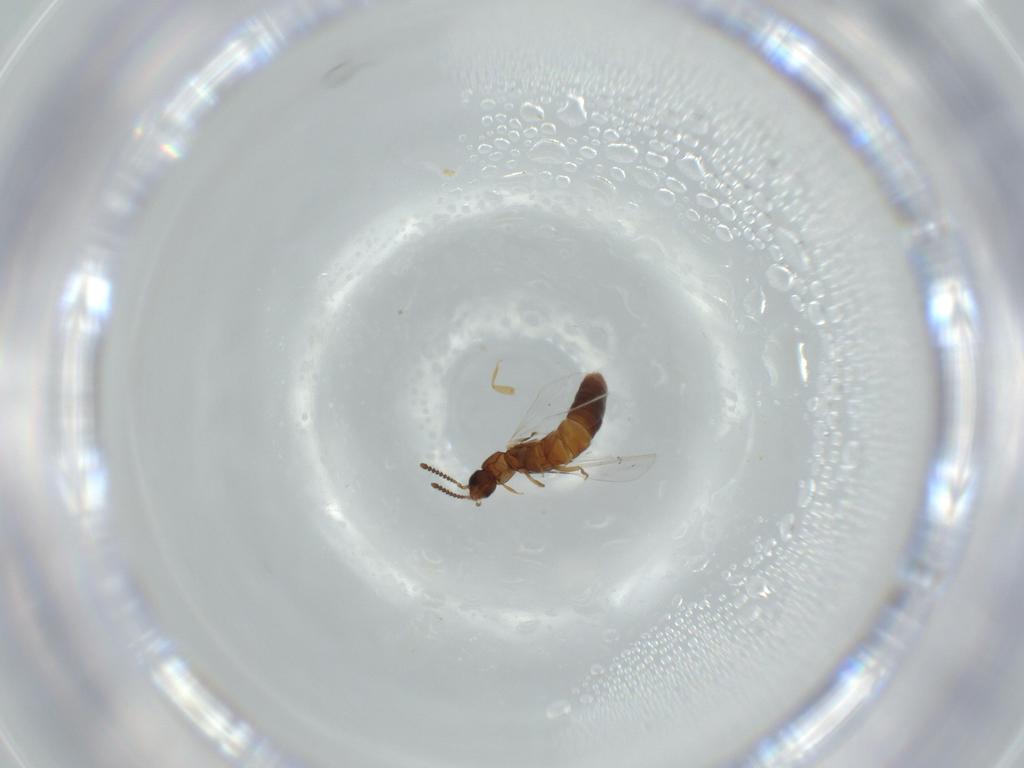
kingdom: Animalia
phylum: Arthropoda
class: Insecta
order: Coleoptera
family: Staphylinidae
